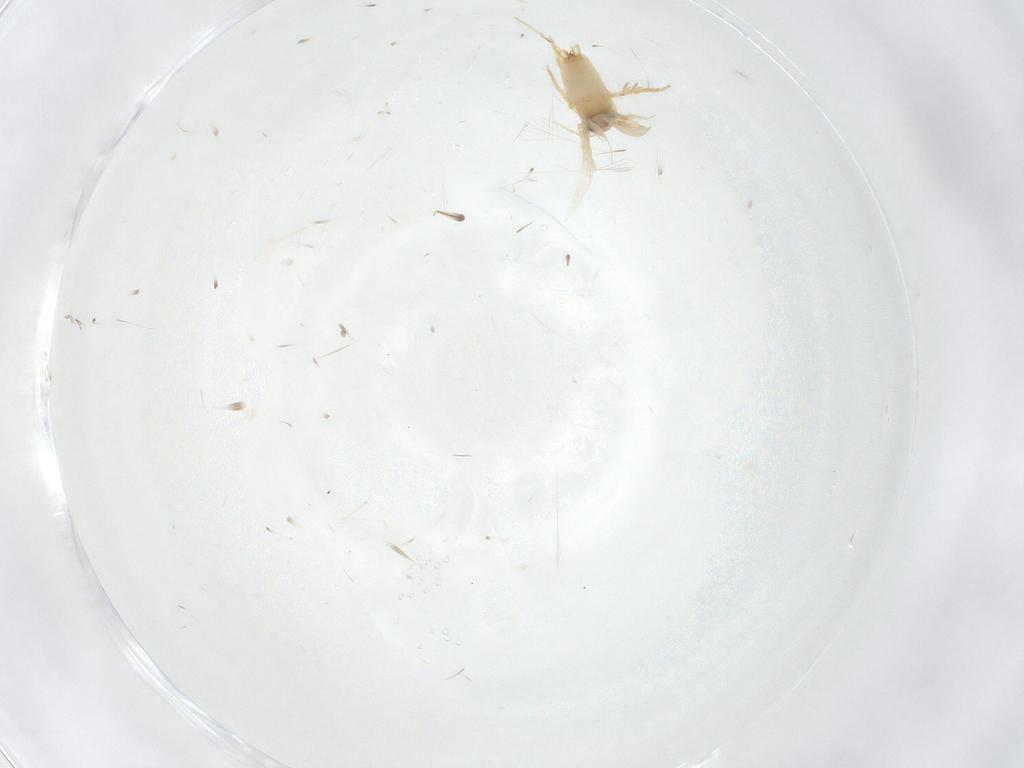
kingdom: Animalia
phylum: Arthropoda
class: Insecta
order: Lepidoptera
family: Crambidae
